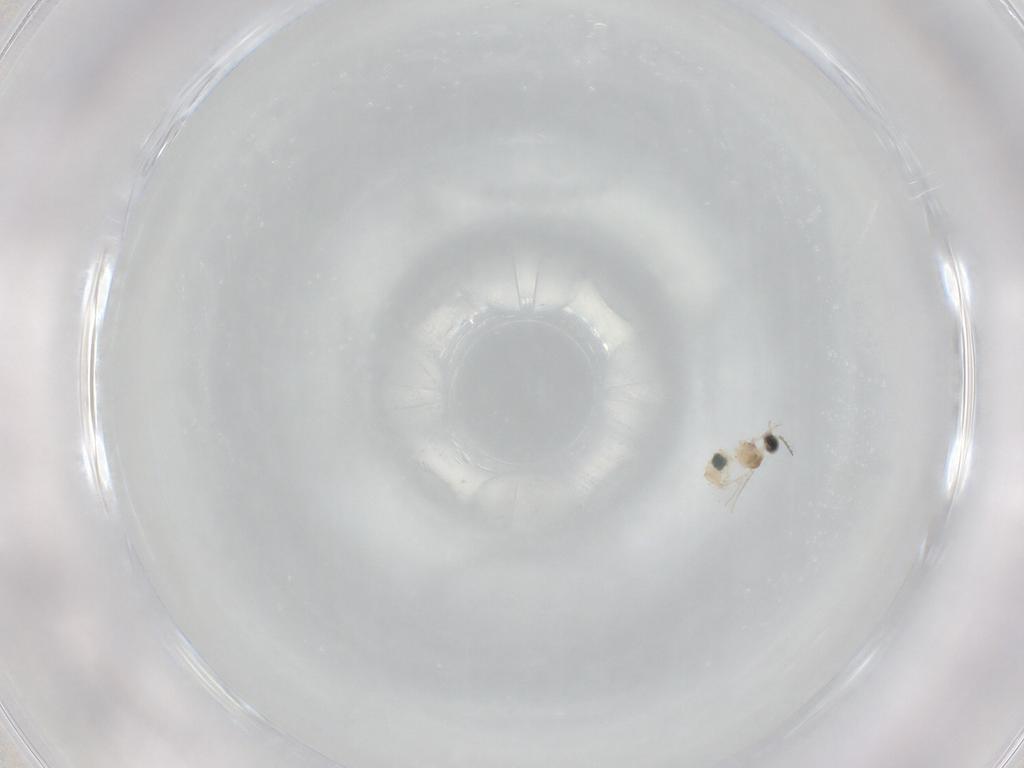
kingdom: Animalia
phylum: Arthropoda
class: Insecta
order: Diptera
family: Cecidomyiidae
